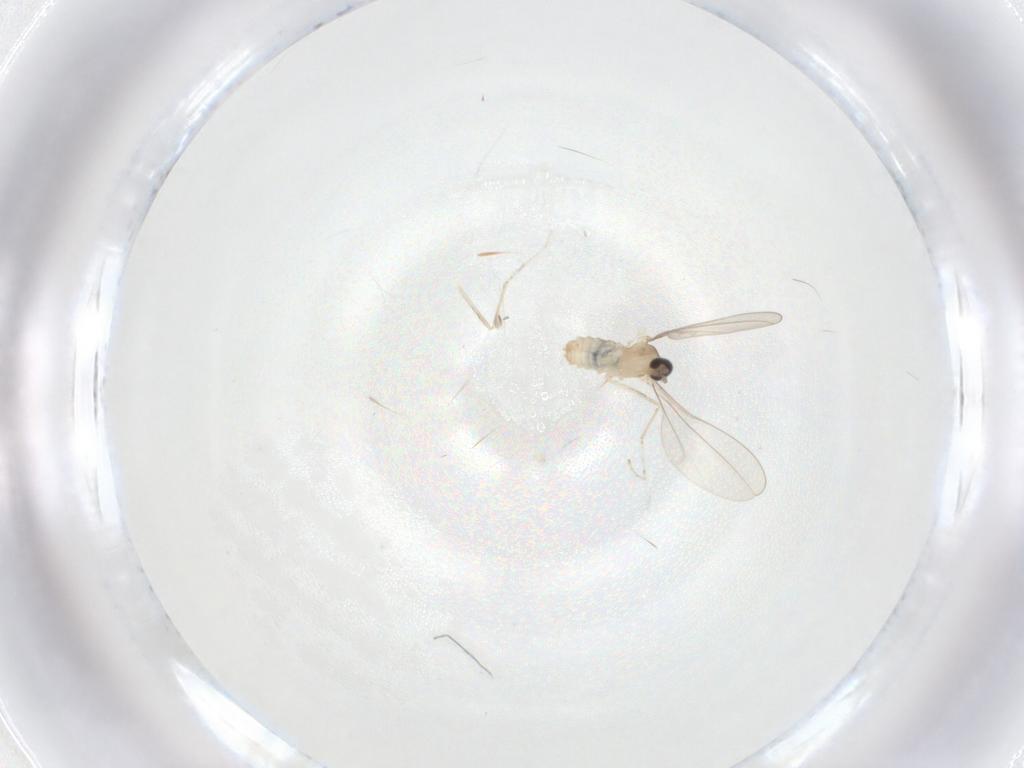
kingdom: Animalia
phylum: Arthropoda
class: Insecta
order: Diptera
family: Cecidomyiidae
